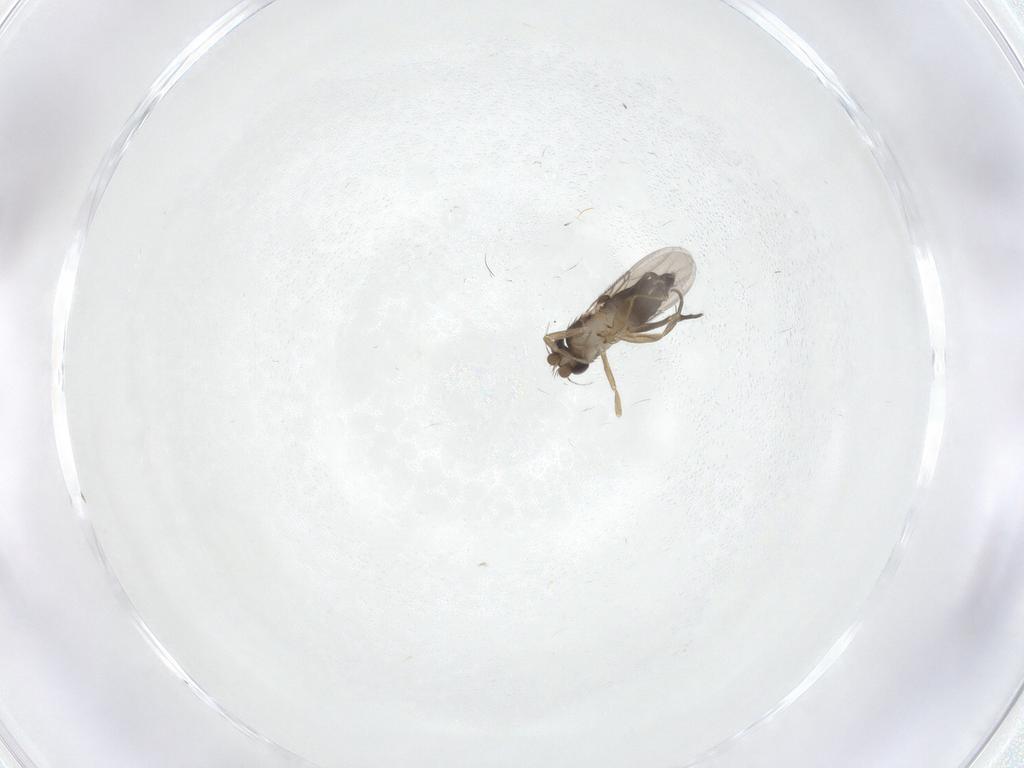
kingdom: Animalia
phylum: Arthropoda
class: Insecta
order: Diptera
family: Phoridae
